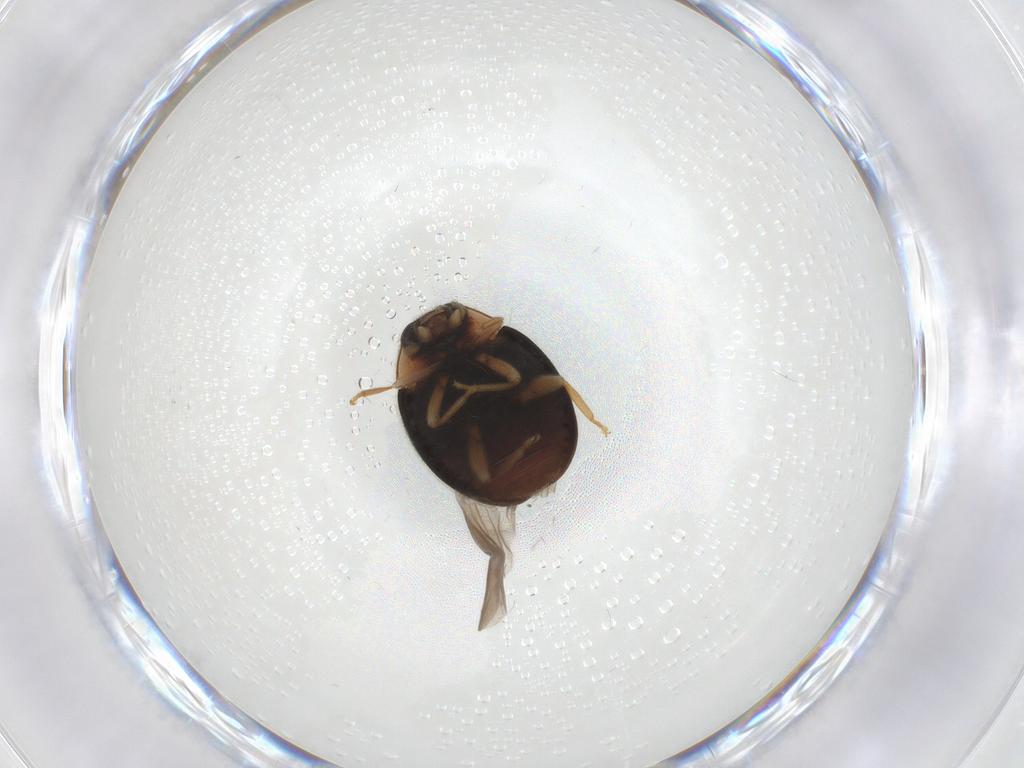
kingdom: Animalia
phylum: Arthropoda
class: Insecta
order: Coleoptera
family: Coccinellidae
